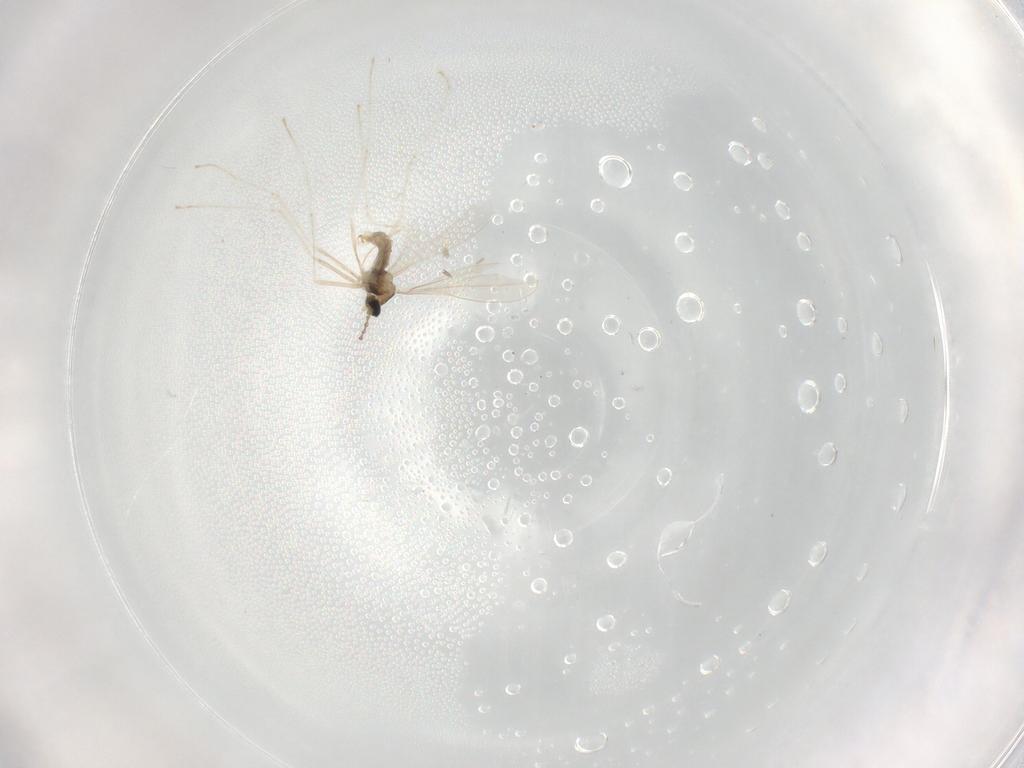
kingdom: Animalia
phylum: Arthropoda
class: Insecta
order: Diptera
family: Cecidomyiidae
